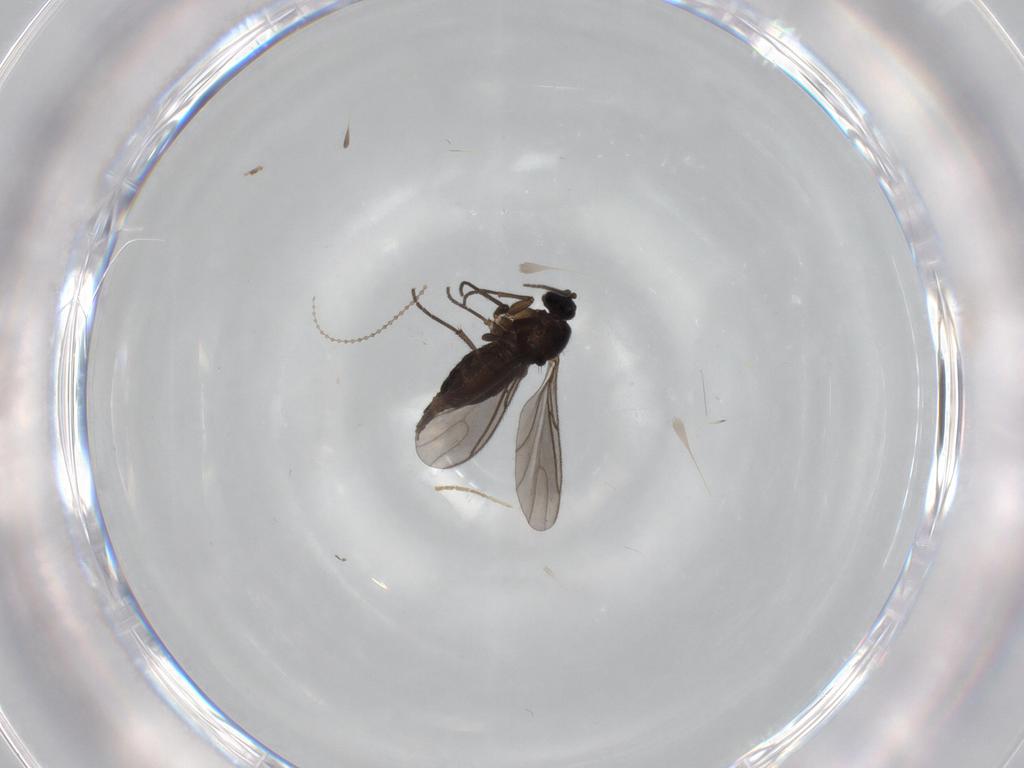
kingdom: Animalia
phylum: Arthropoda
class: Insecta
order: Diptera
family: Sciaridae
